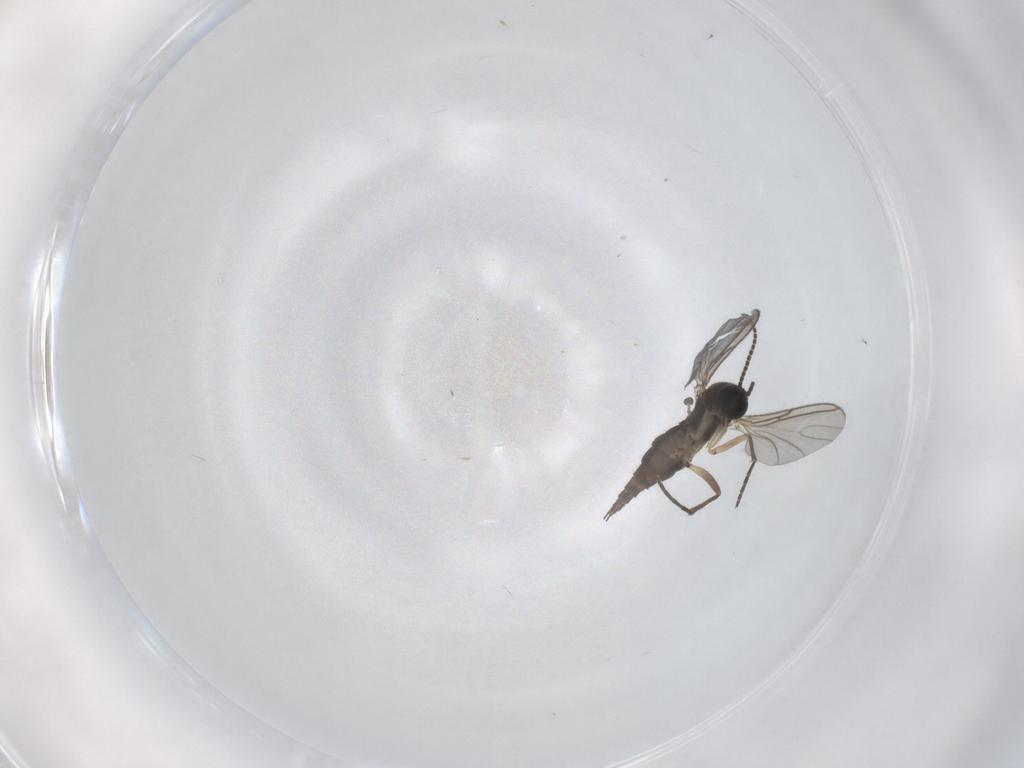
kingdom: Animalia
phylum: Arthropoda
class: Insecta
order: Diptera
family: Sciaridae
